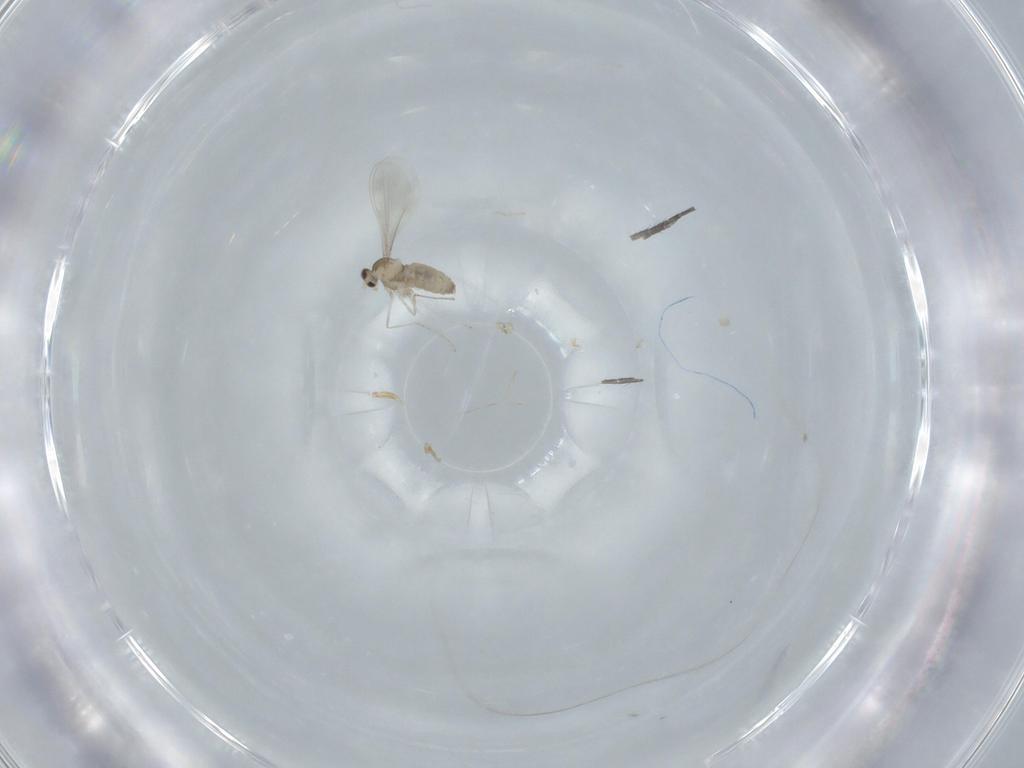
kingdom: Animalia
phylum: Arthropoda
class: Insecta
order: Diptera
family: Cecidomyiidae
